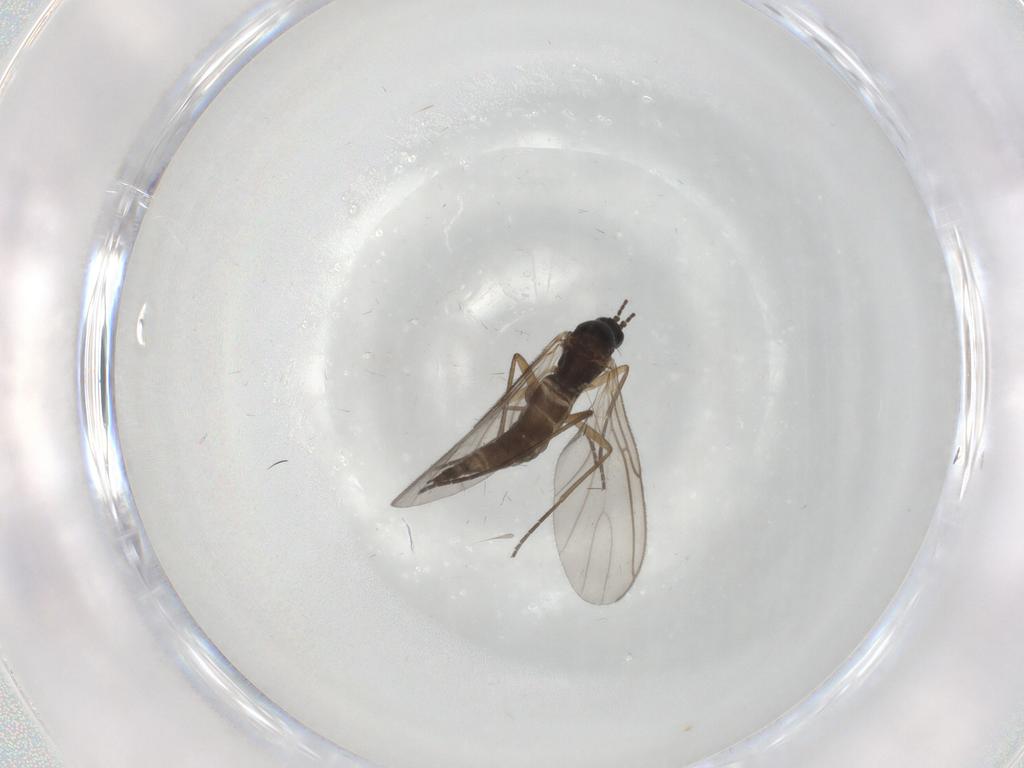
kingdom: Animalia
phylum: Arthropoda
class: Insecta
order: Diptera
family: Sciaridae
